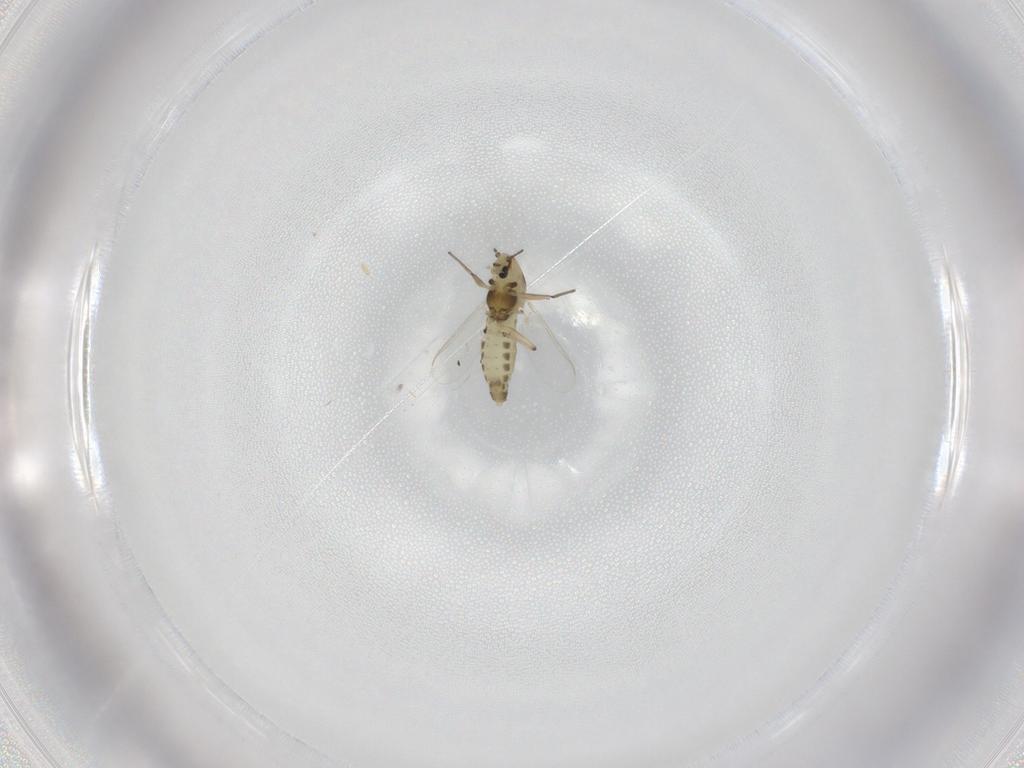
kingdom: Animalia
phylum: Arthropoda
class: Insecta
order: Diptera
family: Chironomidae
